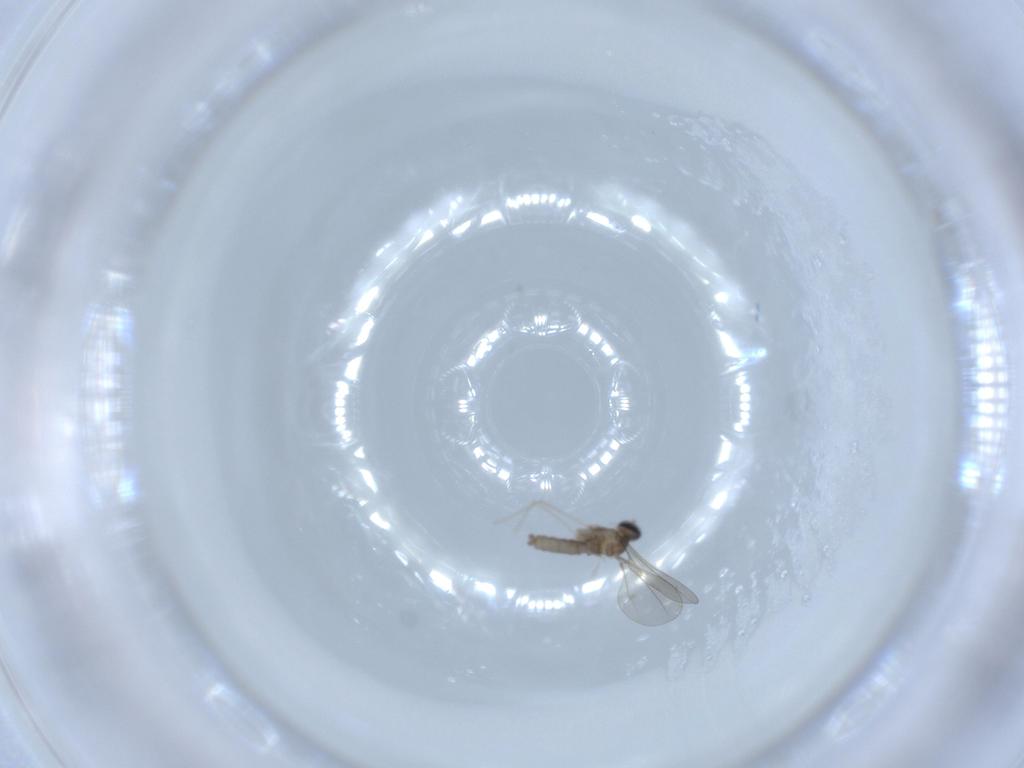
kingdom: Animalia
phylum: Arthropoda
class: Insecta
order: Diptera
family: Cecidomyiidae
